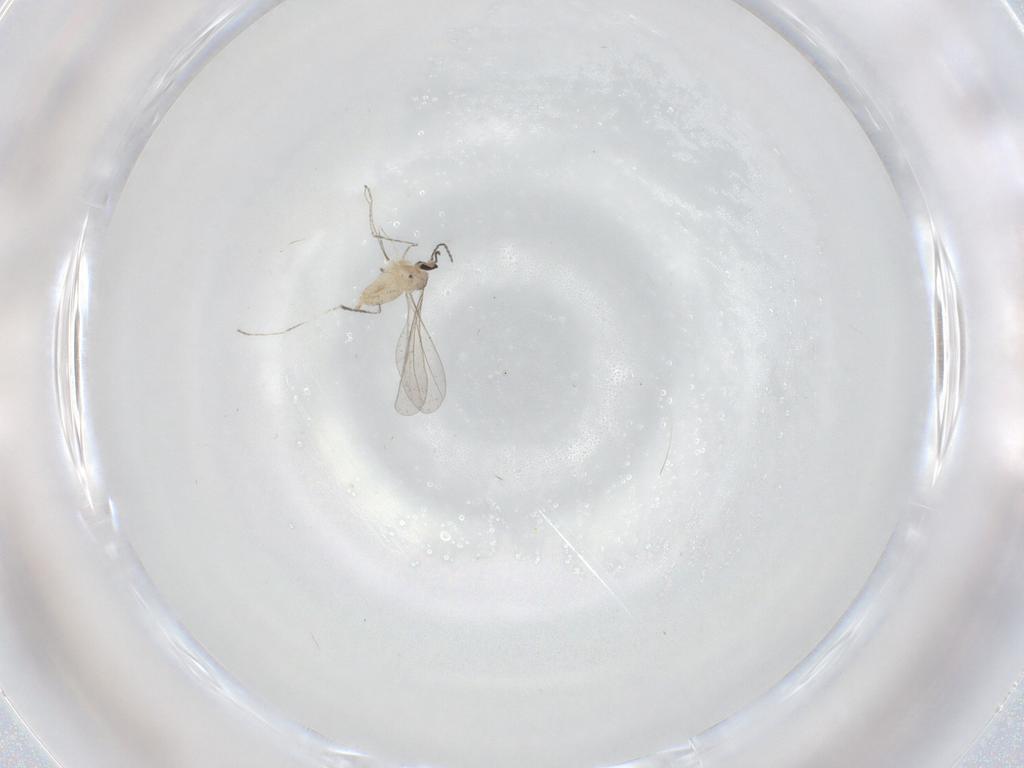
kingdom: Animalia
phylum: Arthropoda
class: Insecta
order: Diptera
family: Cecidomyiidae
